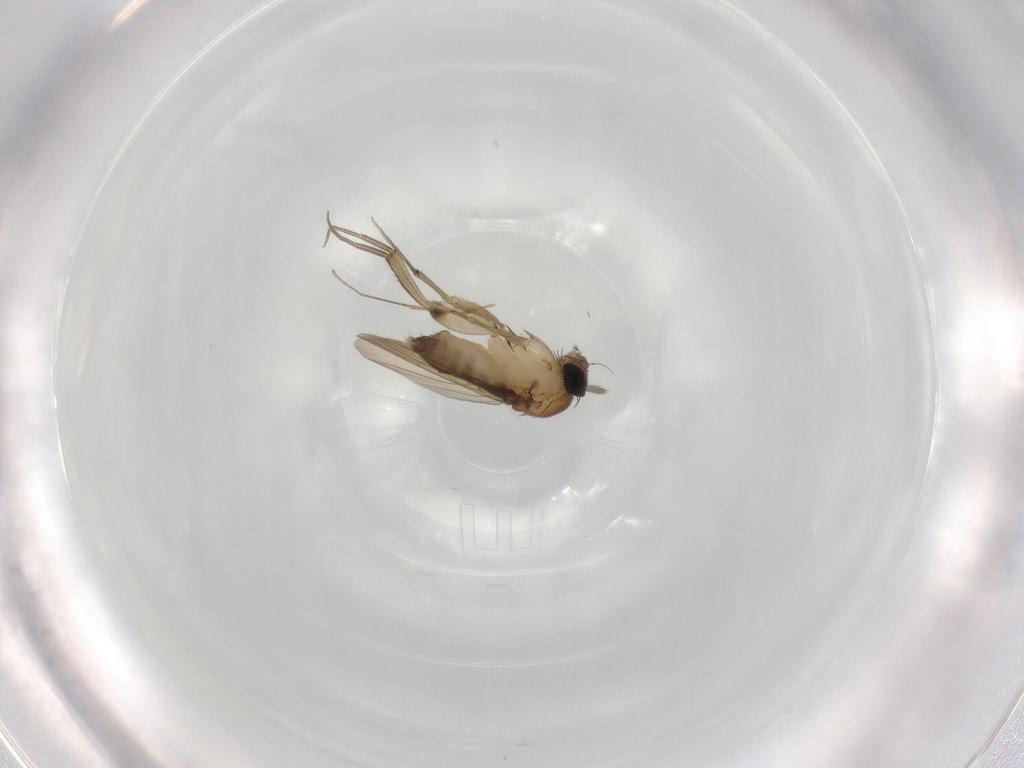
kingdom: Animalia
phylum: Arthropoda
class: Insecta
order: Diptera
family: Phoridae
